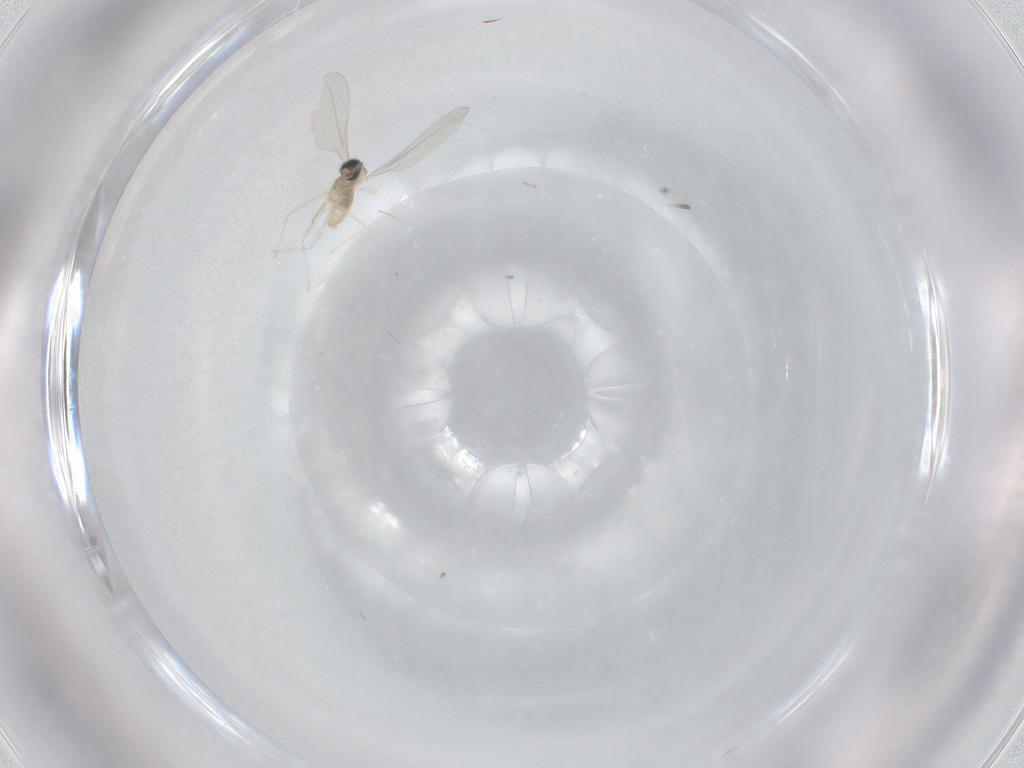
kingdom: Animalia
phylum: Arthropoda
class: Insecta
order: Diptera
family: Cecidomyiidae
